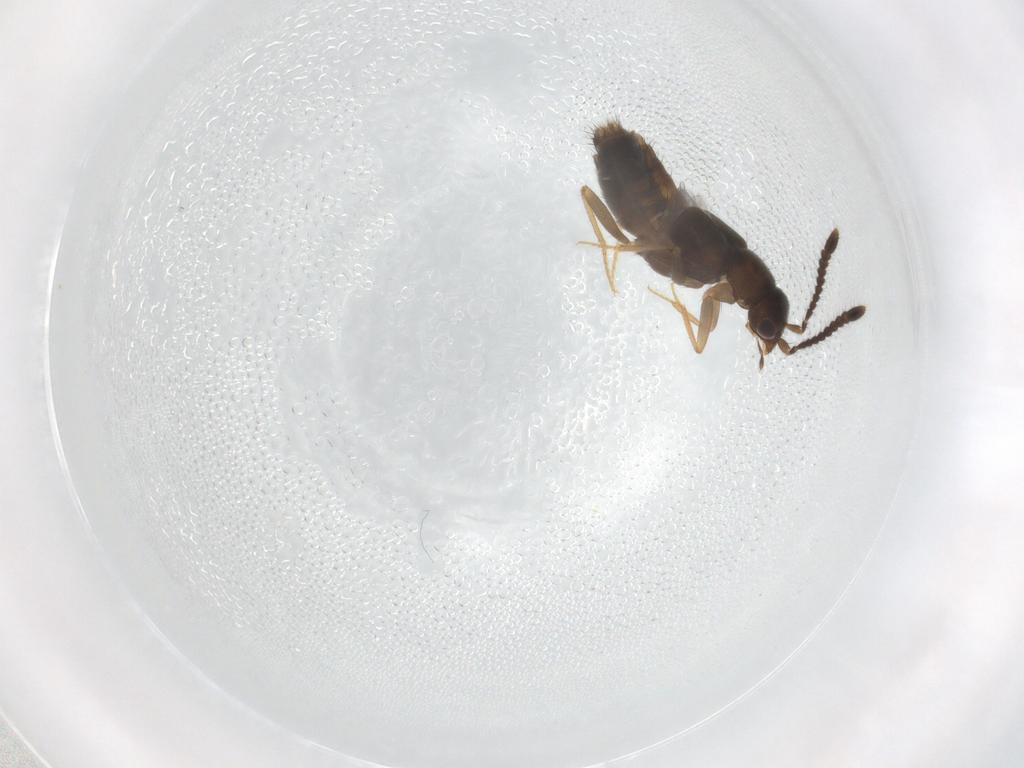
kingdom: Animalia
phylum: Arthropoda
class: Insecta
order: Coleoptera
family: Staphylinidae
